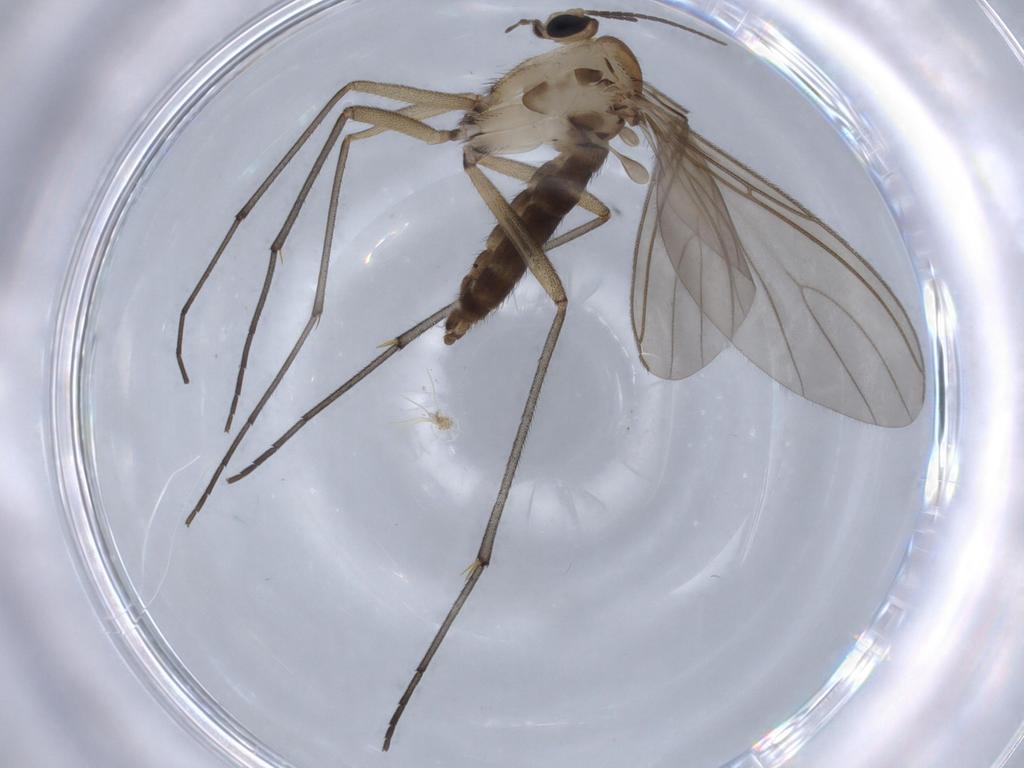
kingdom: Animalia
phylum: Arthropoda
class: Insecta
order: Diptera
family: Sciaridae
